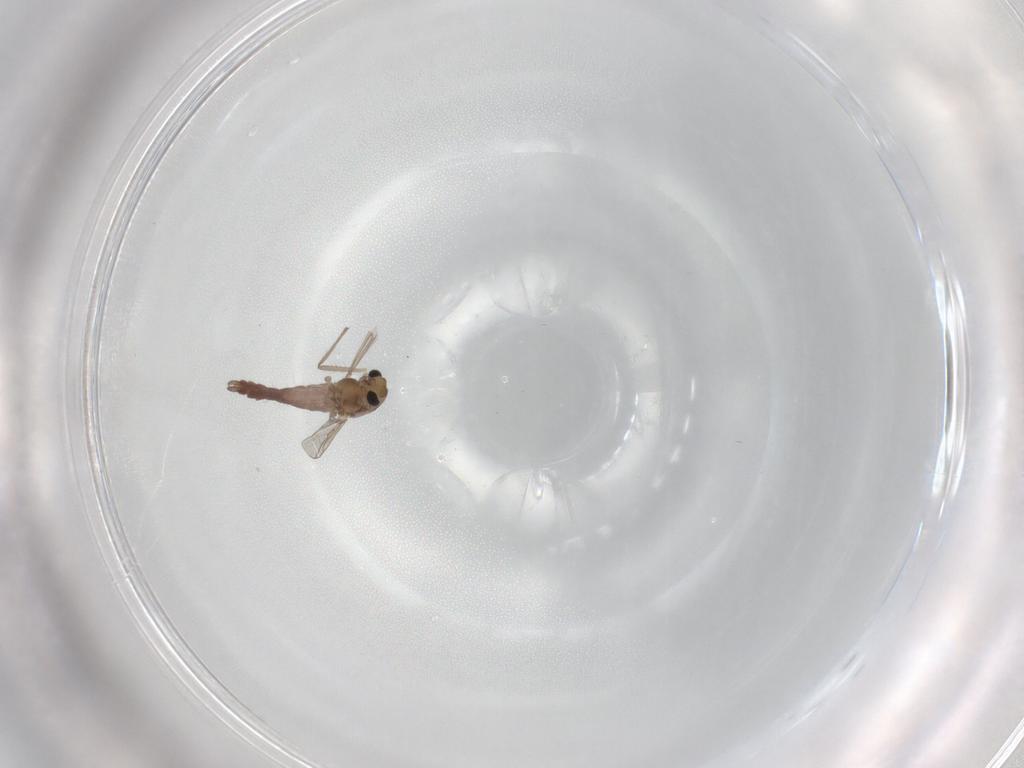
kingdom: Animalia
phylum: Arthropoda
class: Insecta
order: Diptera
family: Chironomidae
